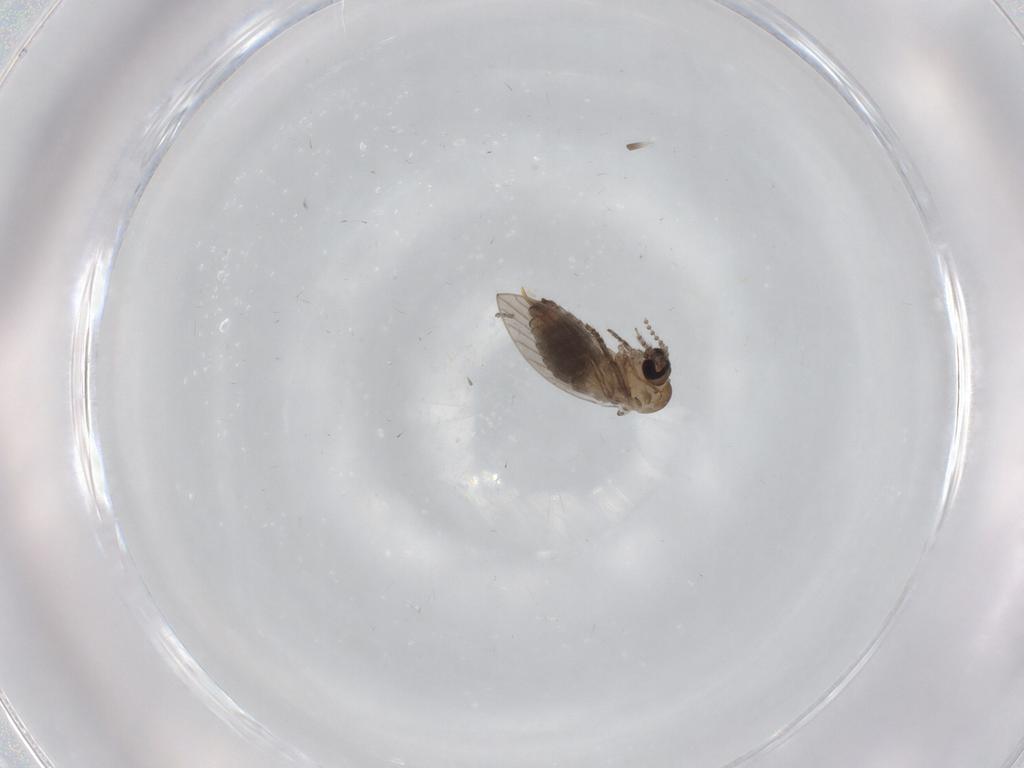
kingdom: Animalia
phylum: Arthropoda
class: Insecta
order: Diptera
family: Psychodidae
